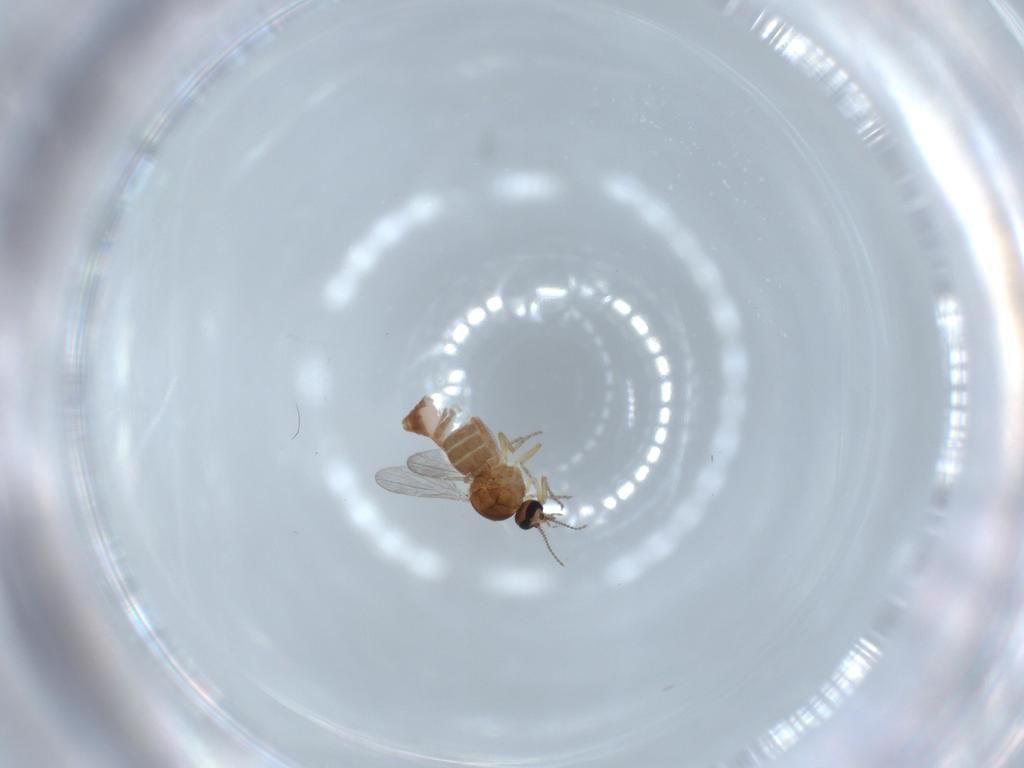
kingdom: Animalia
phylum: Arthropoda
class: Insecta
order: Diptera
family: Ceratopogonidae
